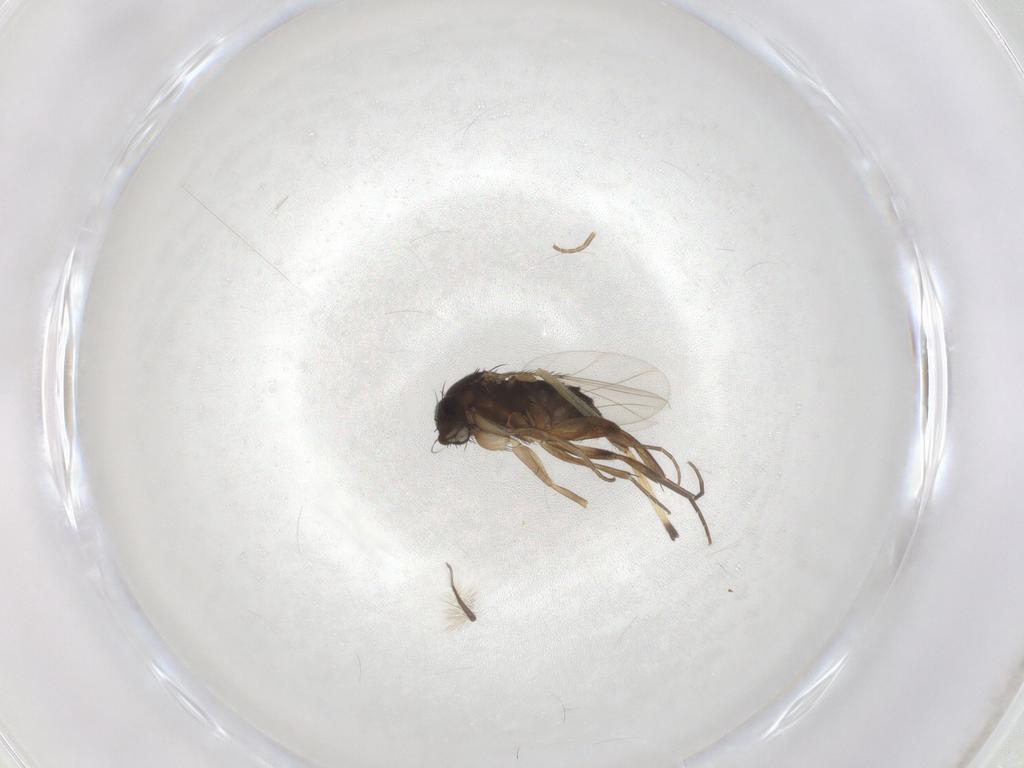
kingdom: Animalia
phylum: Arthropoda
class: Insecta
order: Diptera
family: Phoridae
